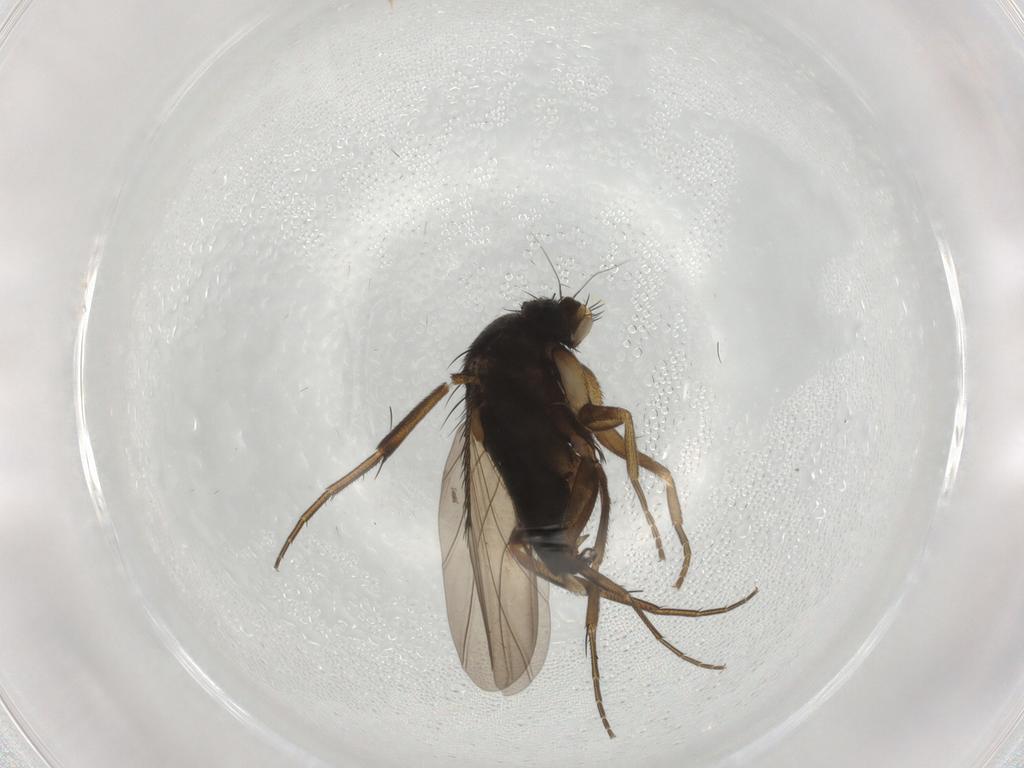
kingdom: Animalia
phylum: Arthropoda
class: Insecta
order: Diptera
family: Phoridae
